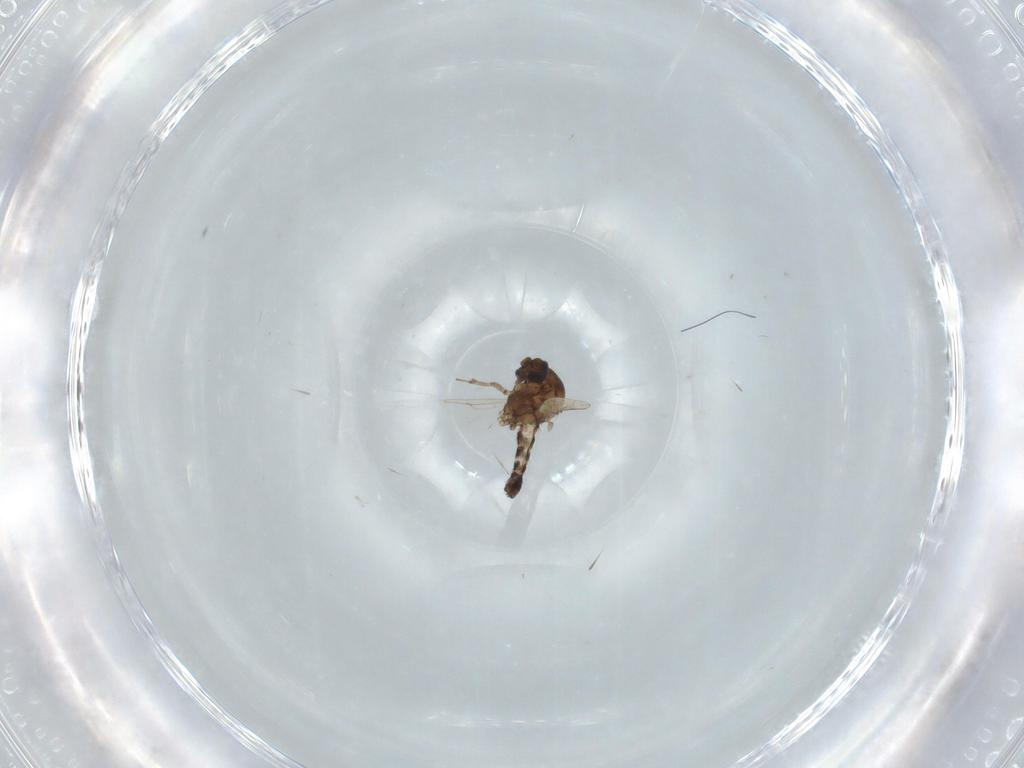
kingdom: Animalia
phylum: Arthropoda
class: Insecta
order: Diptera
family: Ceratopogonidae
